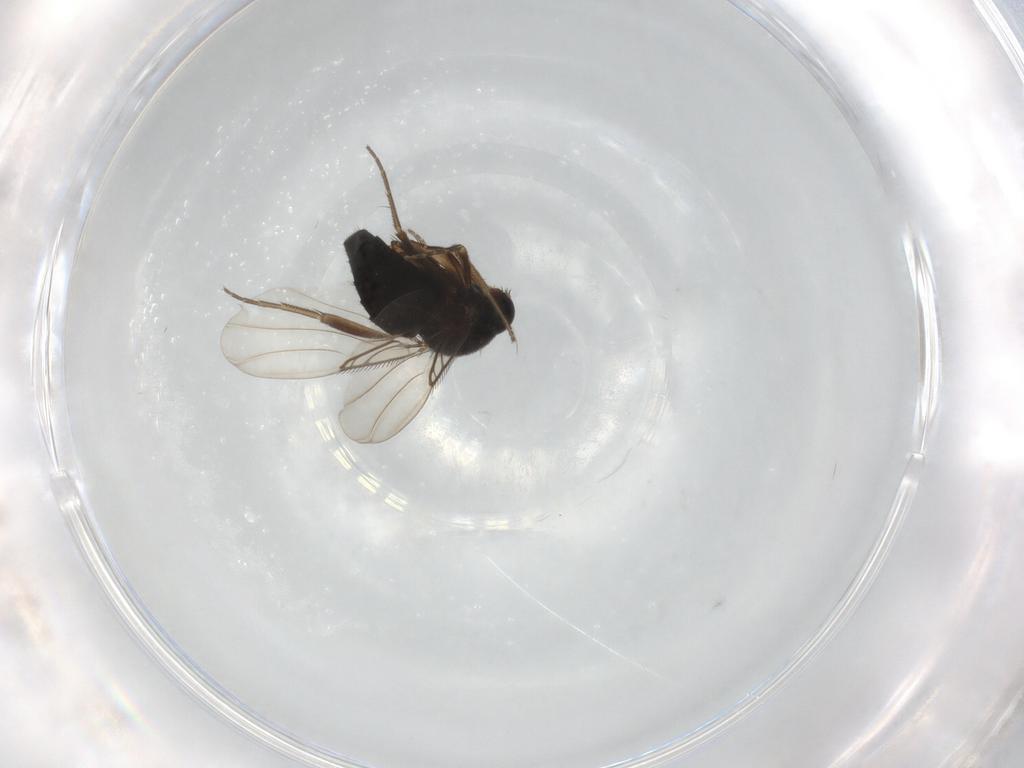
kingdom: Animalia
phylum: Arthropoda
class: Insecta
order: Diptera
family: Phoridae
